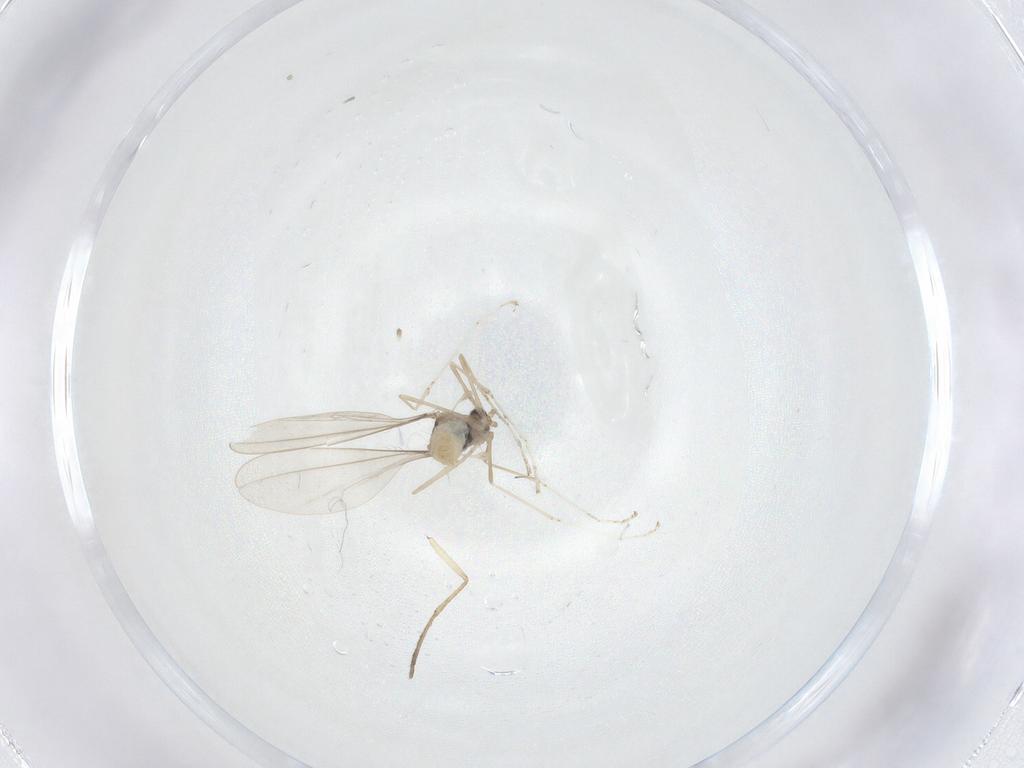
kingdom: Animalia
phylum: Arthropoda
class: Insecta
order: Diptera
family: Cecidomyiidae
